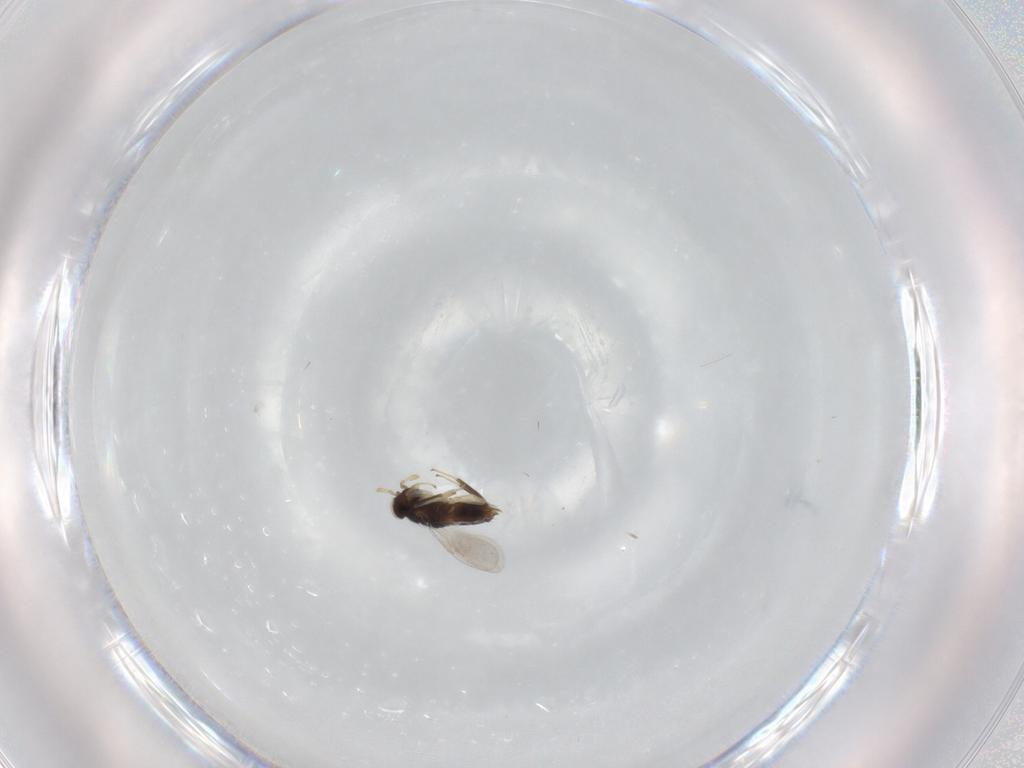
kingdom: Animalia
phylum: Arthropoda
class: Insecta
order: Hymenoptera
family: Aphelinidae
